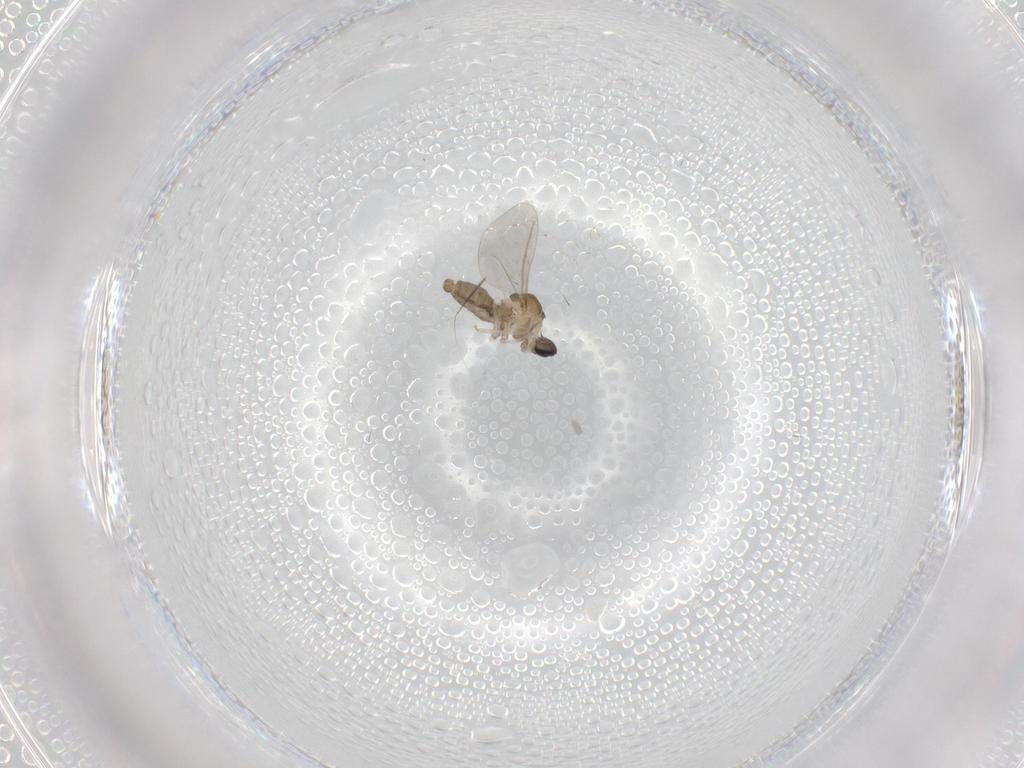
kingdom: Animalia
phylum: Arthropoda
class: Insecta
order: Diptera
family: Cecidomyiidae
